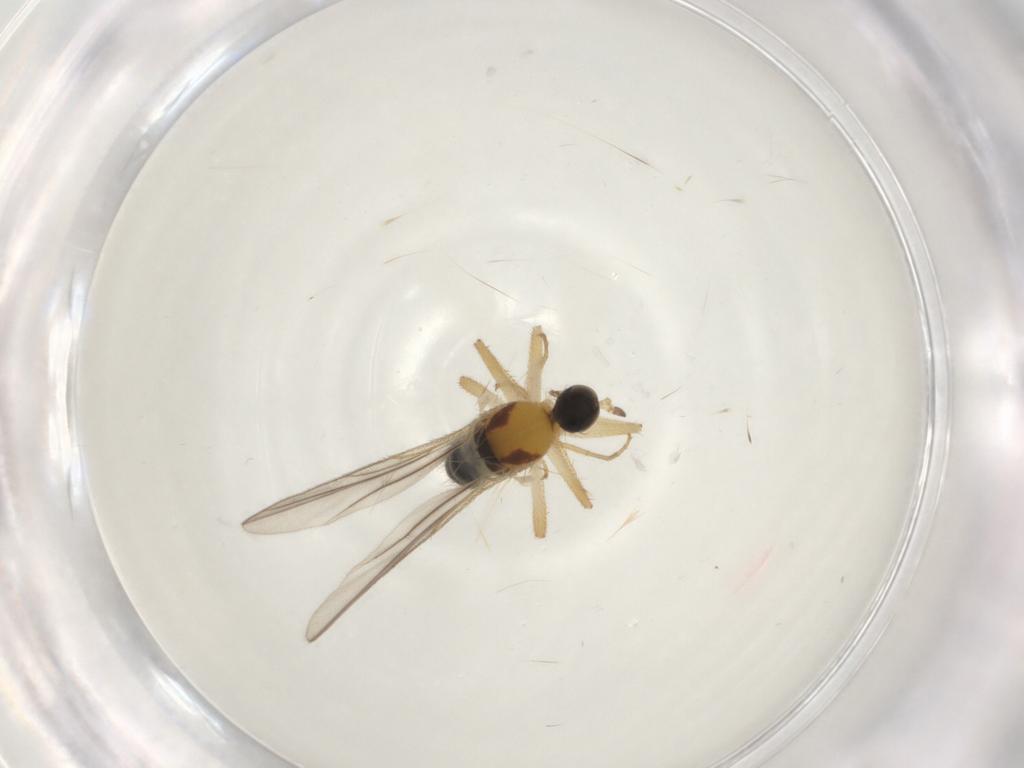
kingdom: Animalia
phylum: Arthropoda
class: Insecta
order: Diptera
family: Hybotidae
